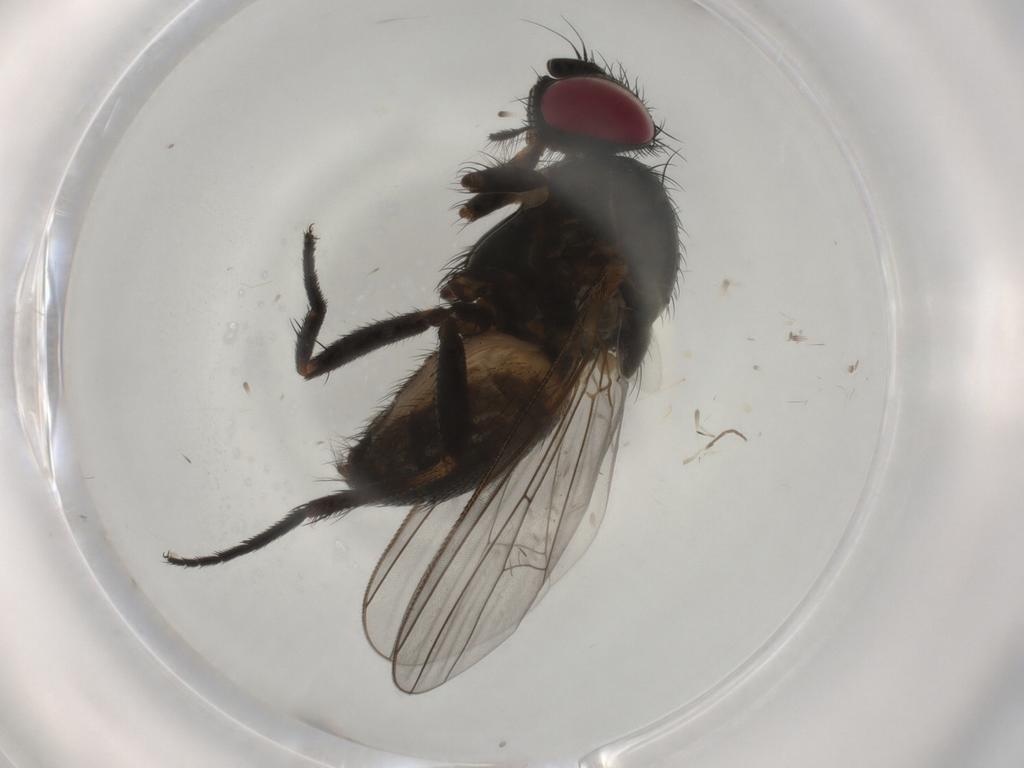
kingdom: Animalia
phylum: Arthropoda
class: Insecta
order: Diptera
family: Fannia
